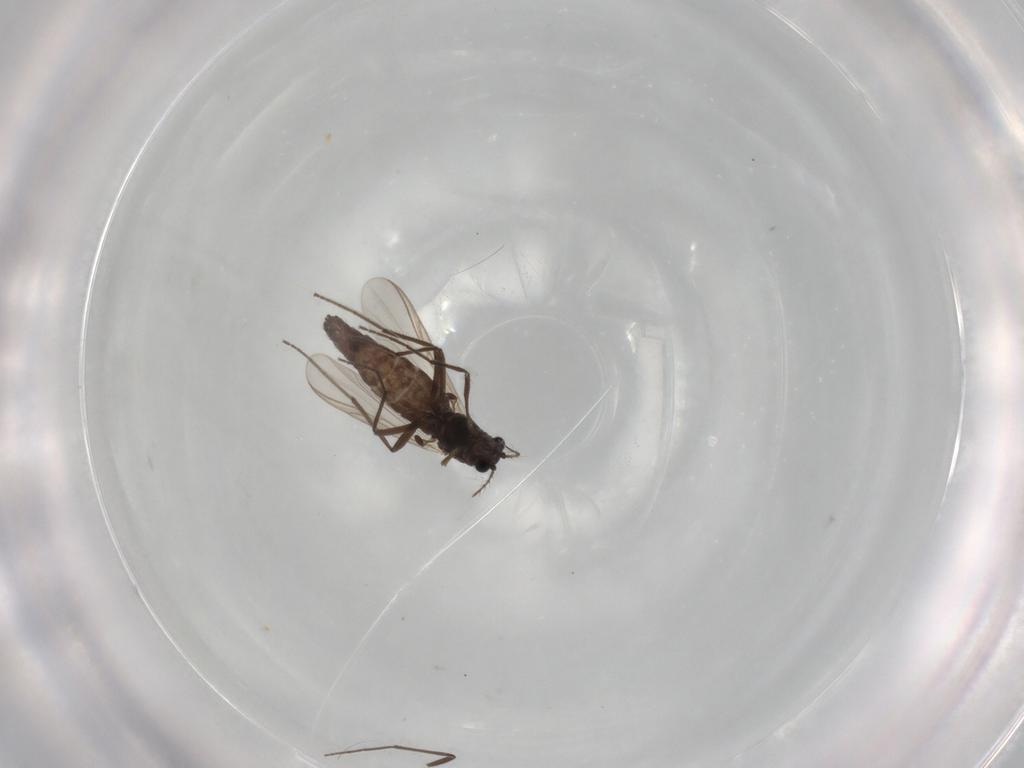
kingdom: Animalia
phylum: Arthropoda
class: Insecta
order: Diptera
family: Chironomidae
